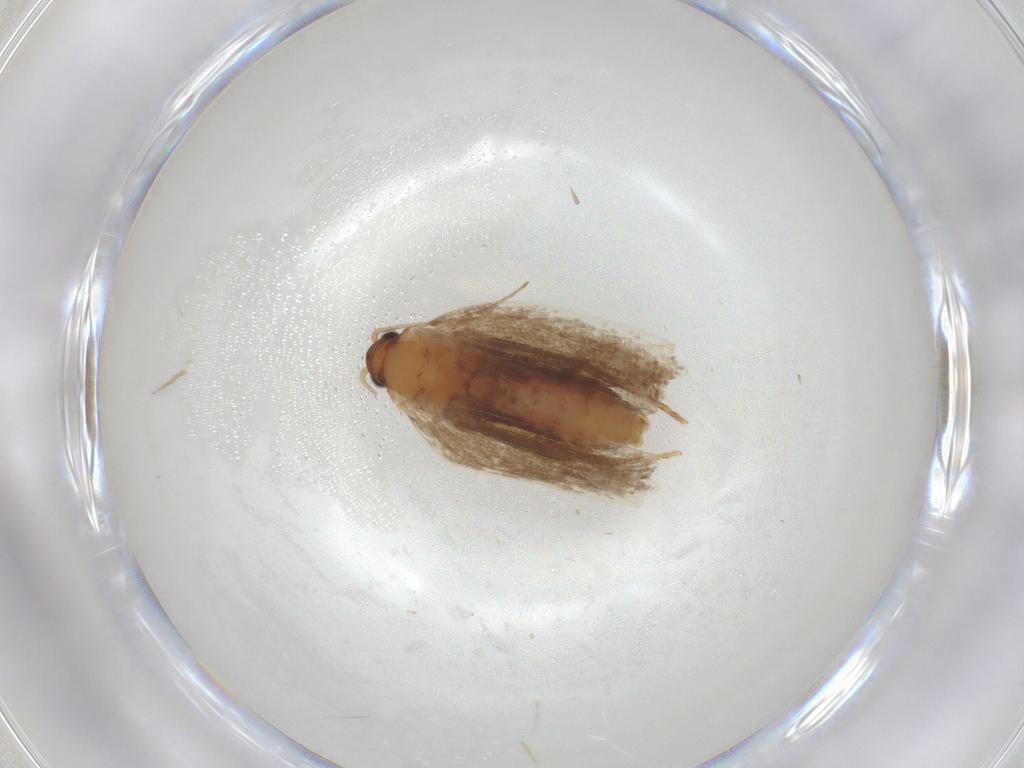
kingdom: Animalia
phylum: Arthropoda
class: Insecta
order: Lepidoptera
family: Eriocottidae
